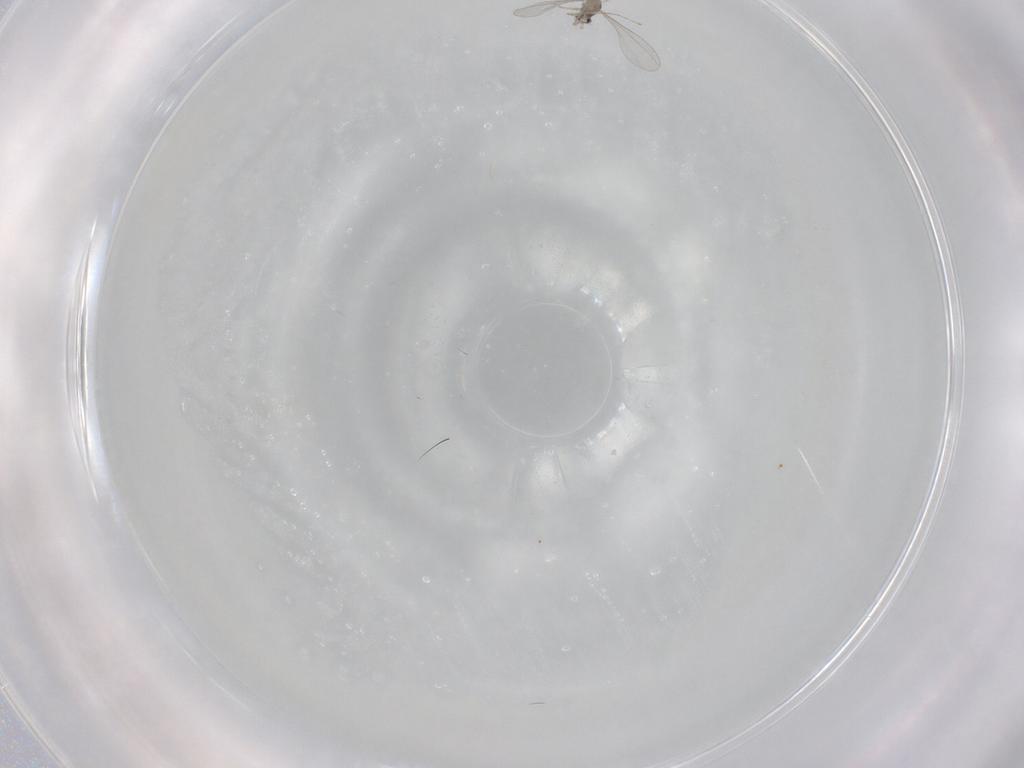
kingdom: Animalia
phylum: Arthropoda
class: Insecta
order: Diptera
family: Cecidomyiidae
